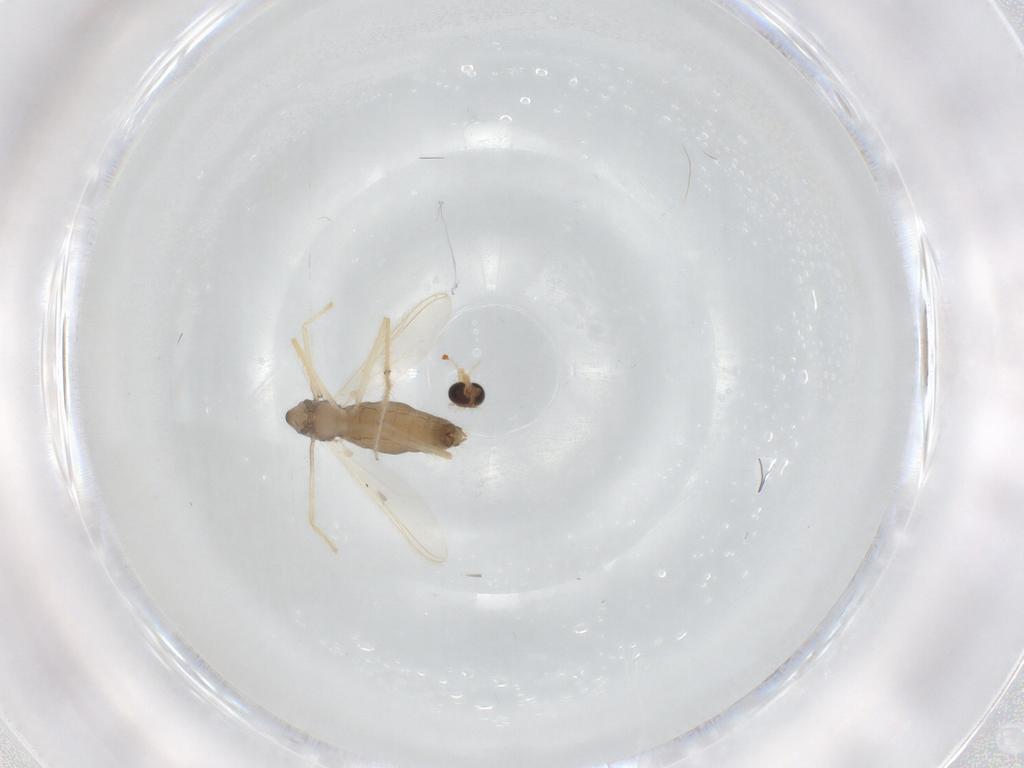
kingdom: Animalia
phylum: Arthropoda
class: Insecta
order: Diptera
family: Chironomidae
